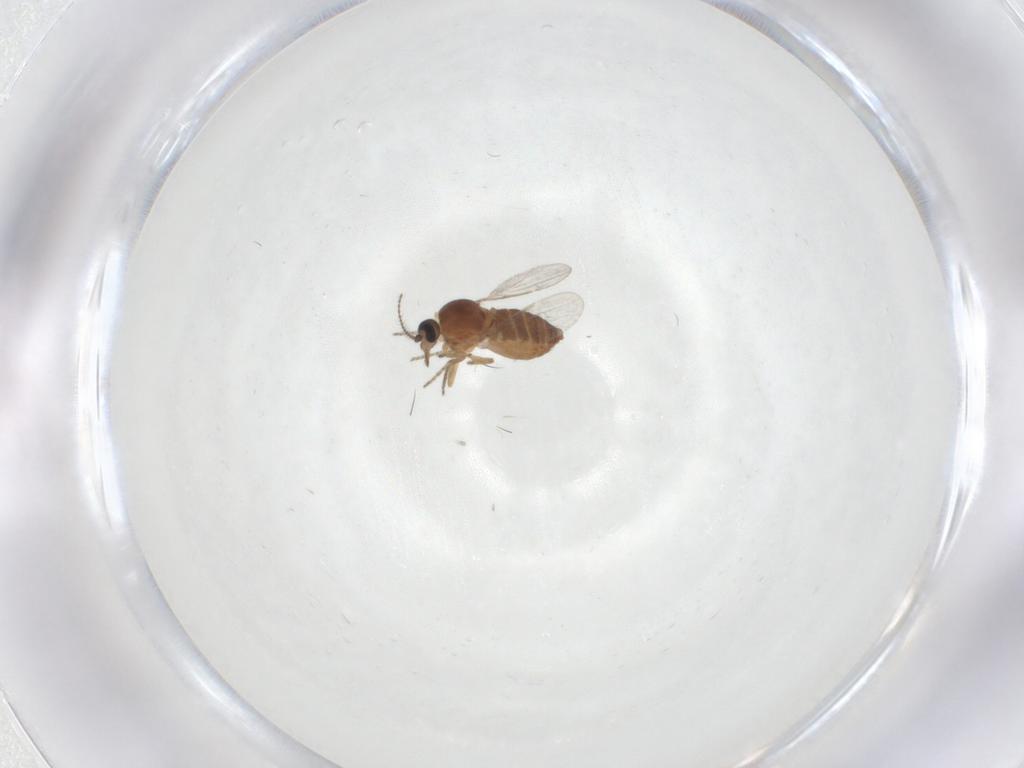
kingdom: Animalia
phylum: Arthropoda
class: Insecta
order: Diptera
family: Ceratopogonidae
